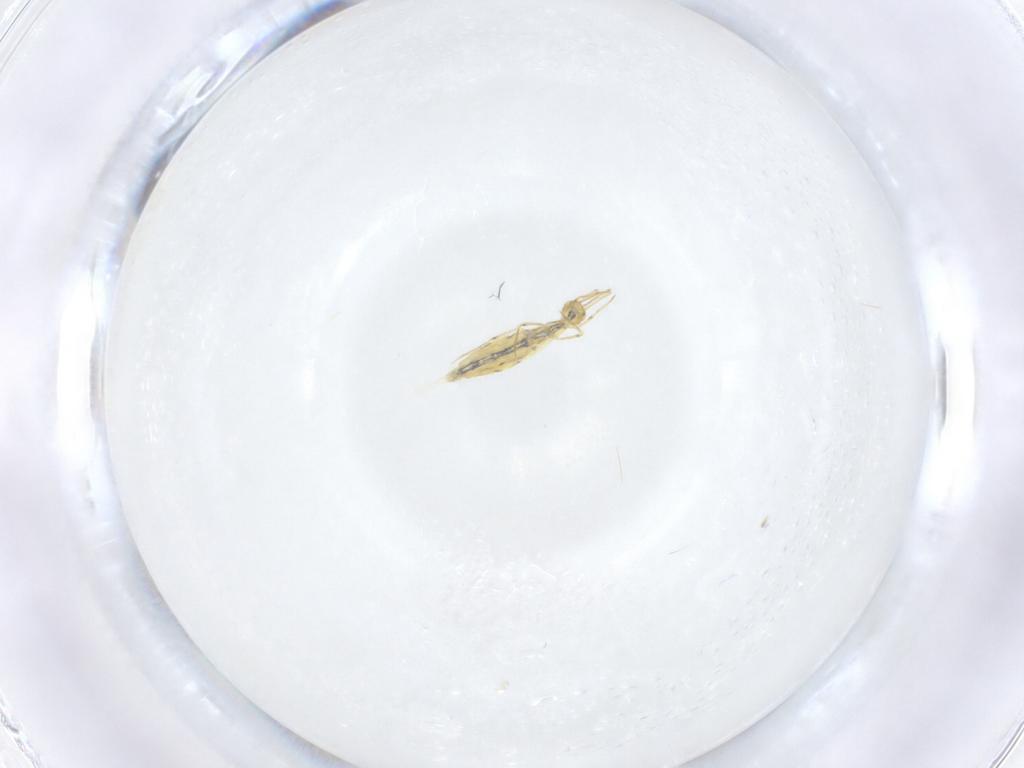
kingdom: Animalia
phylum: Arthropoda
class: Collembola
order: Entomobryomorpha
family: Entomobryidae
